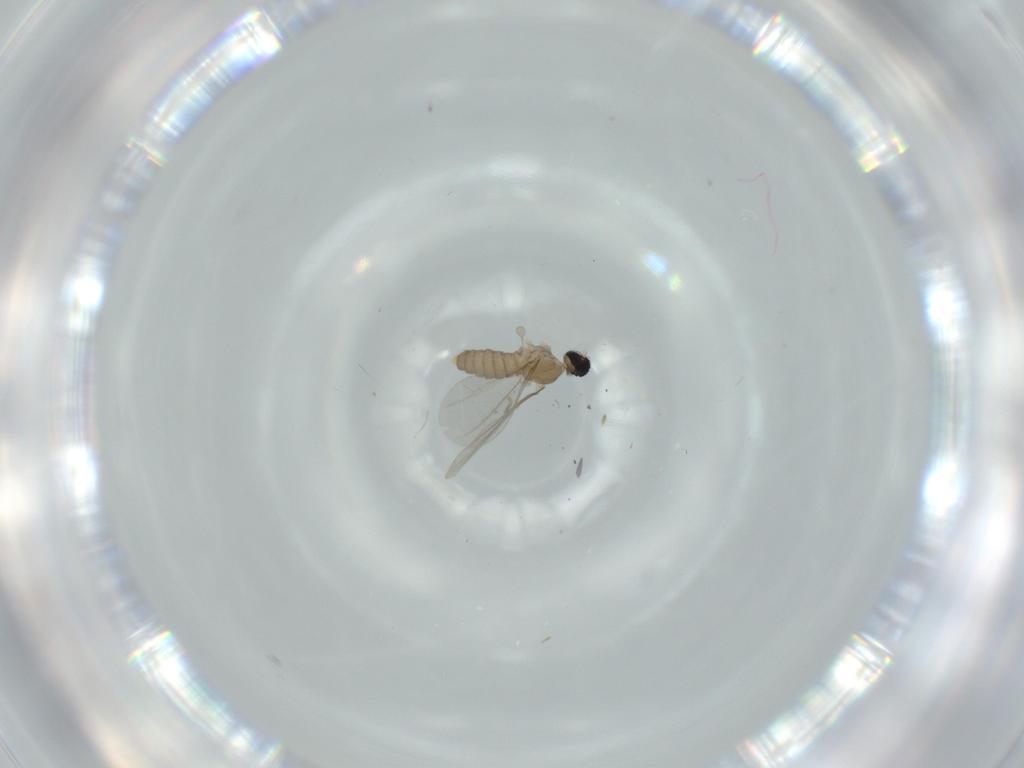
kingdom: Animalia
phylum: Arthropoda
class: Insecta
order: Diptera
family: Cecidomyiidae
